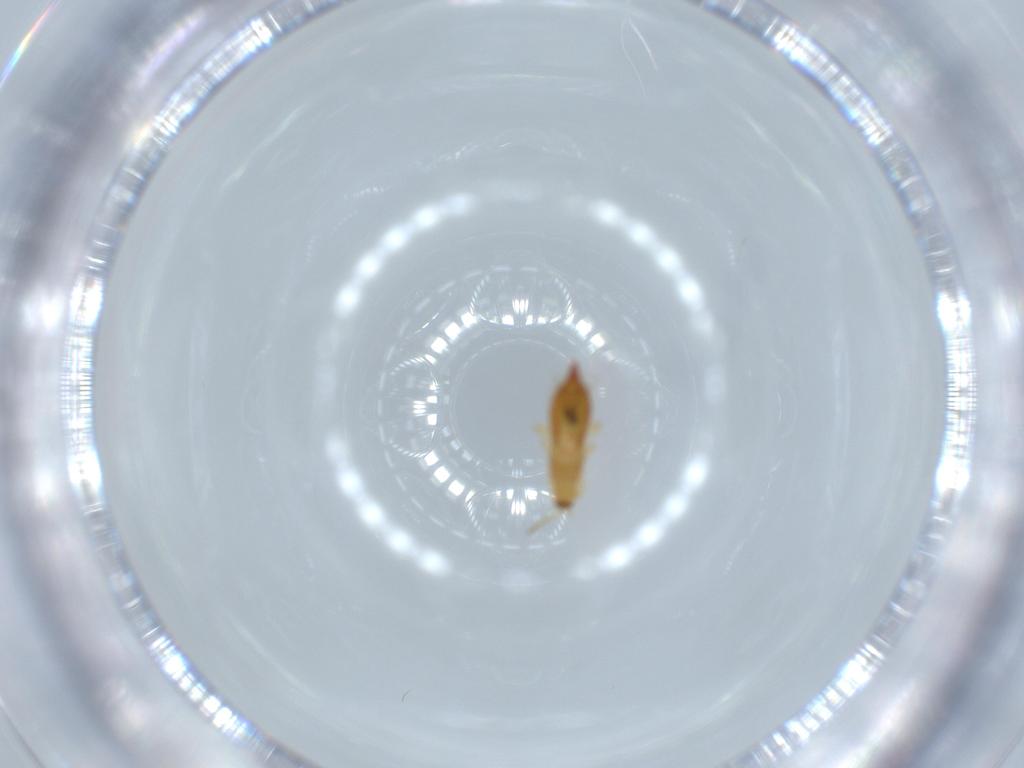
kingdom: Animalia
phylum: Arthropoda
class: Insecta
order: Thysanoptera
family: Phlaeothripidae
